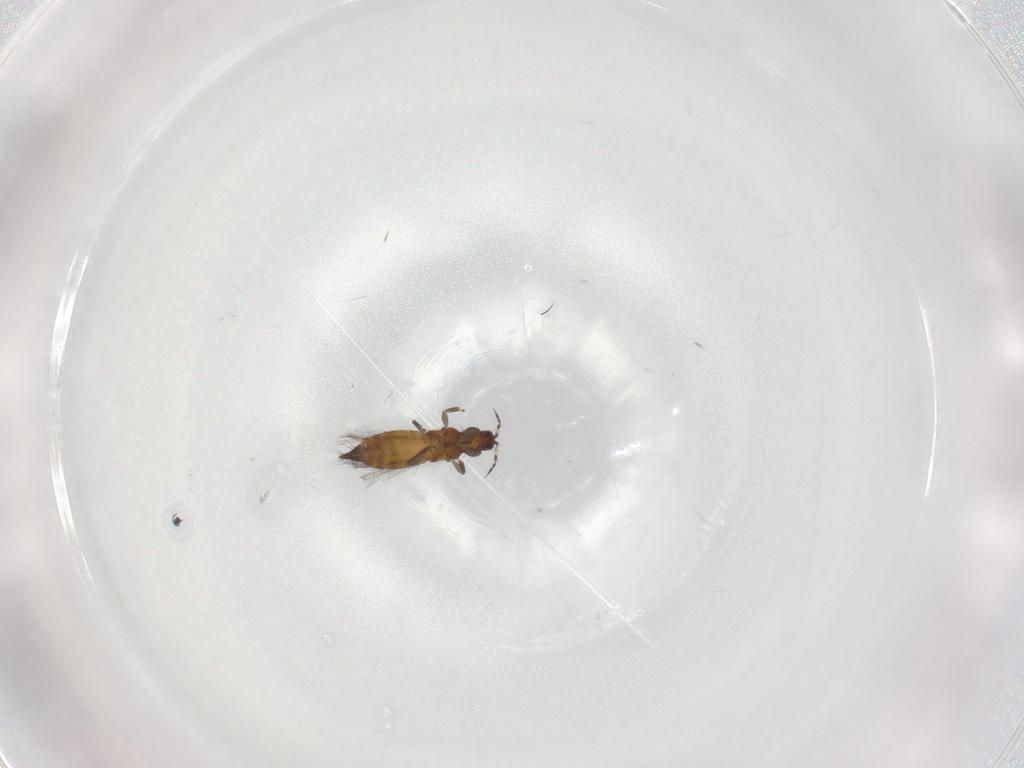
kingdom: Animalia
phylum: Arthropoda
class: Insecta
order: Thysanoptera
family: Thripidae
